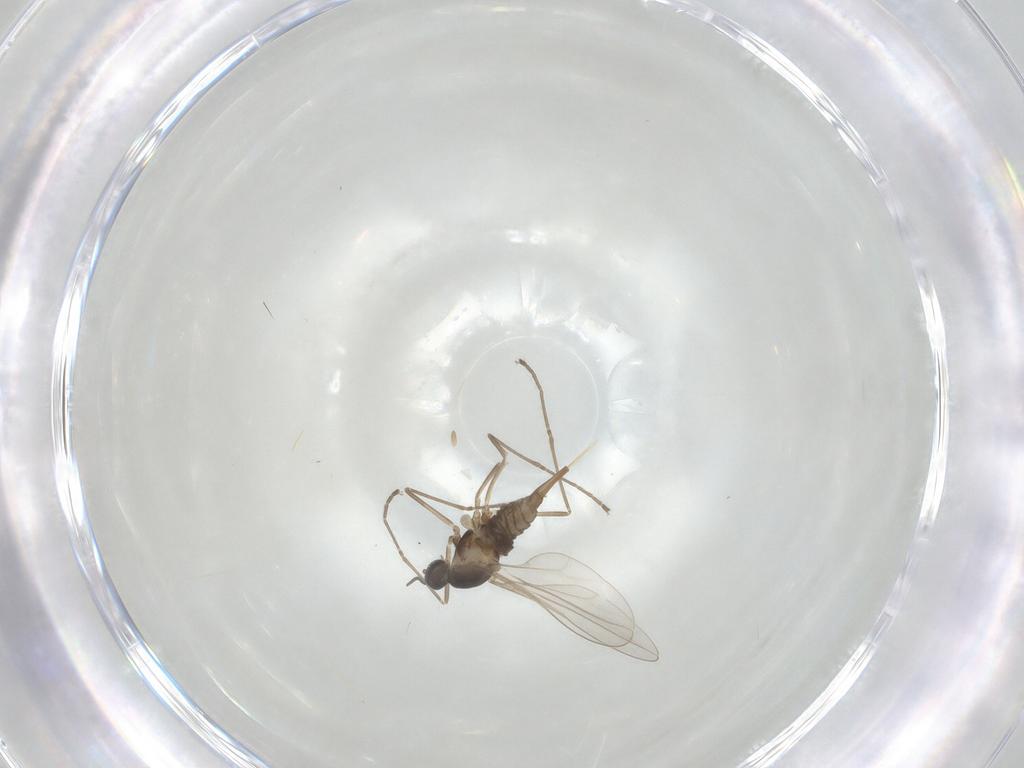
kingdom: Animalia
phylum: Arthropoda
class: Insecta
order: Diptera
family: Cecidomyiidae
